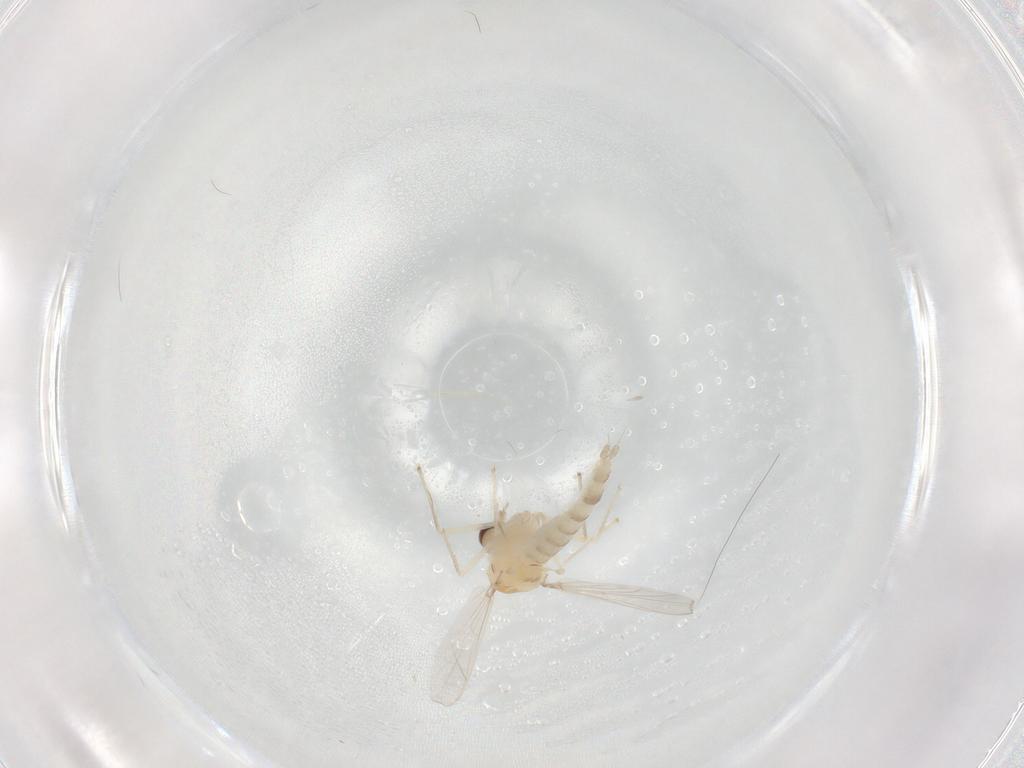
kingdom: Animalia
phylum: Arthropoda
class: Insecta
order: Diptera
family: Chironomidae
